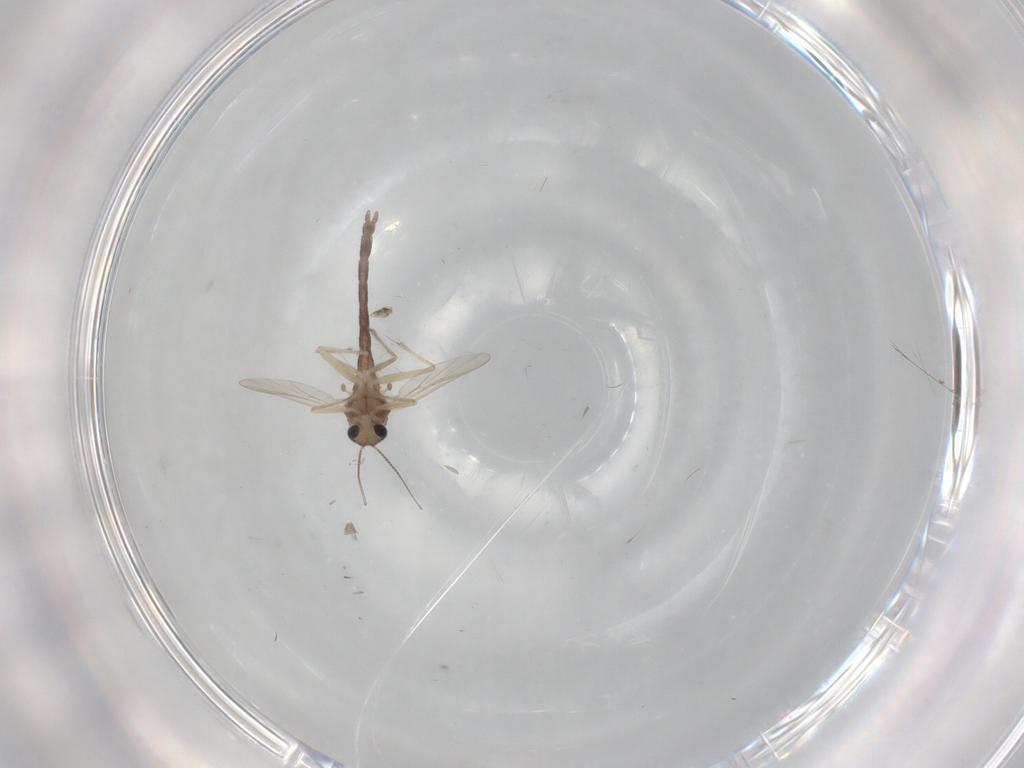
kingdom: Animalia
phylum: Arthropoda
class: Insecta
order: Diptera
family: Chironomidae
